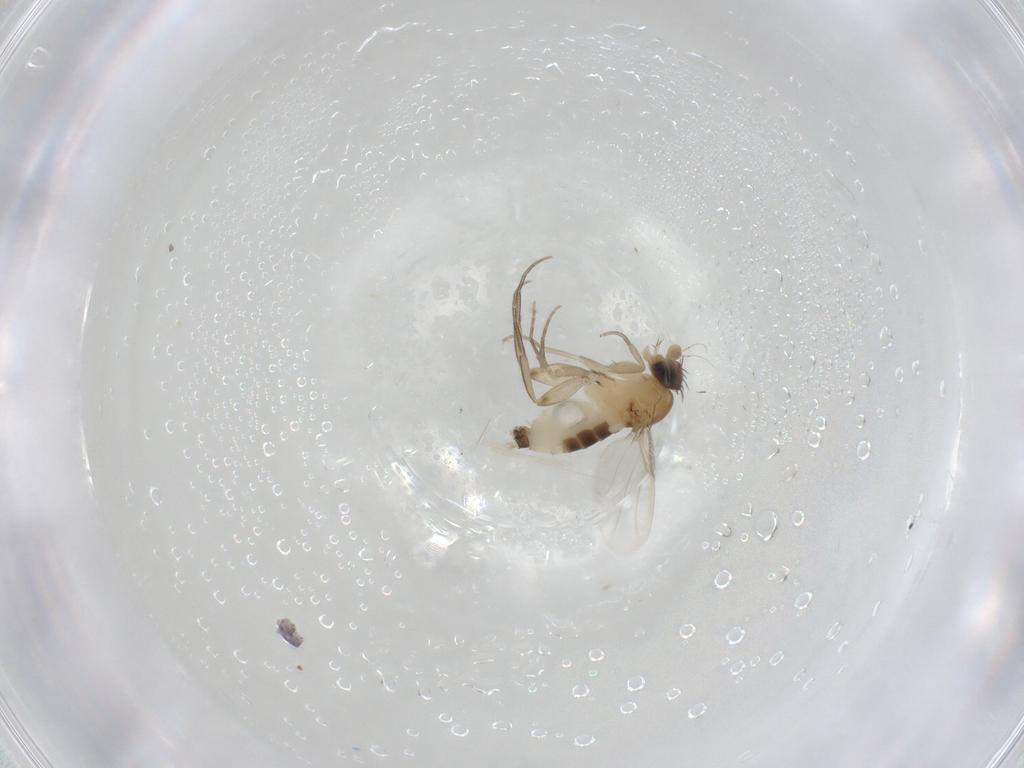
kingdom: Animalia
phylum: Arthropoda
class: Insecta
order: Diptera
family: Phoridae
